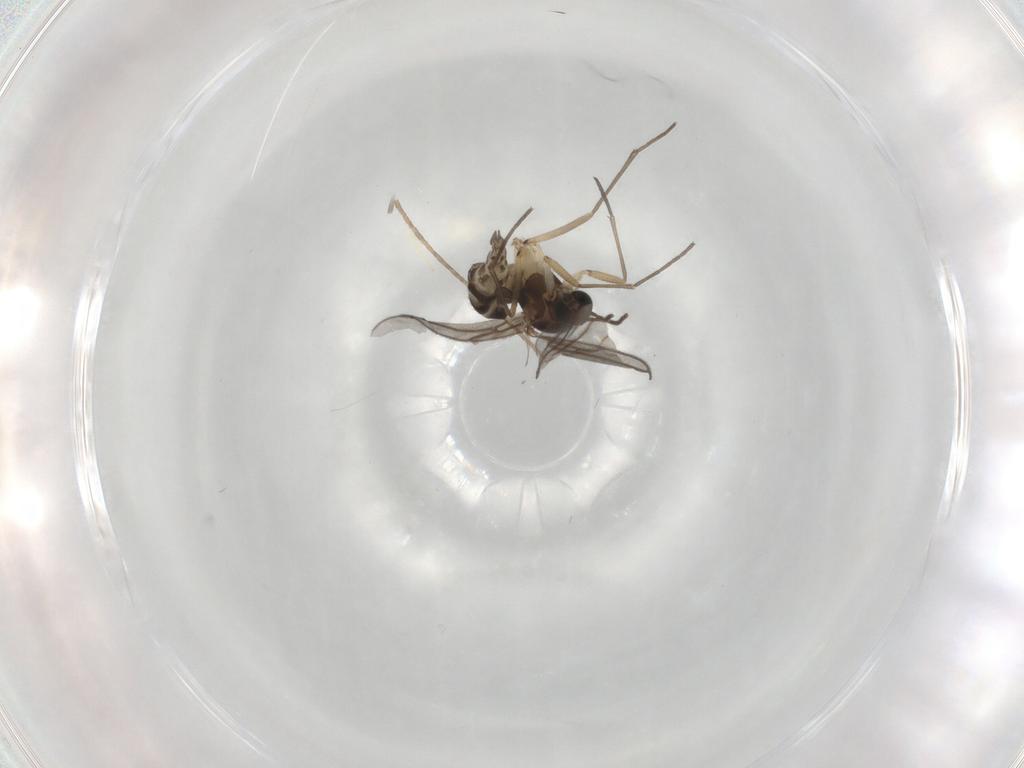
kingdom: Animalia
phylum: Arthropoda
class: Insecta
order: Diptera
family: Sciaridae
